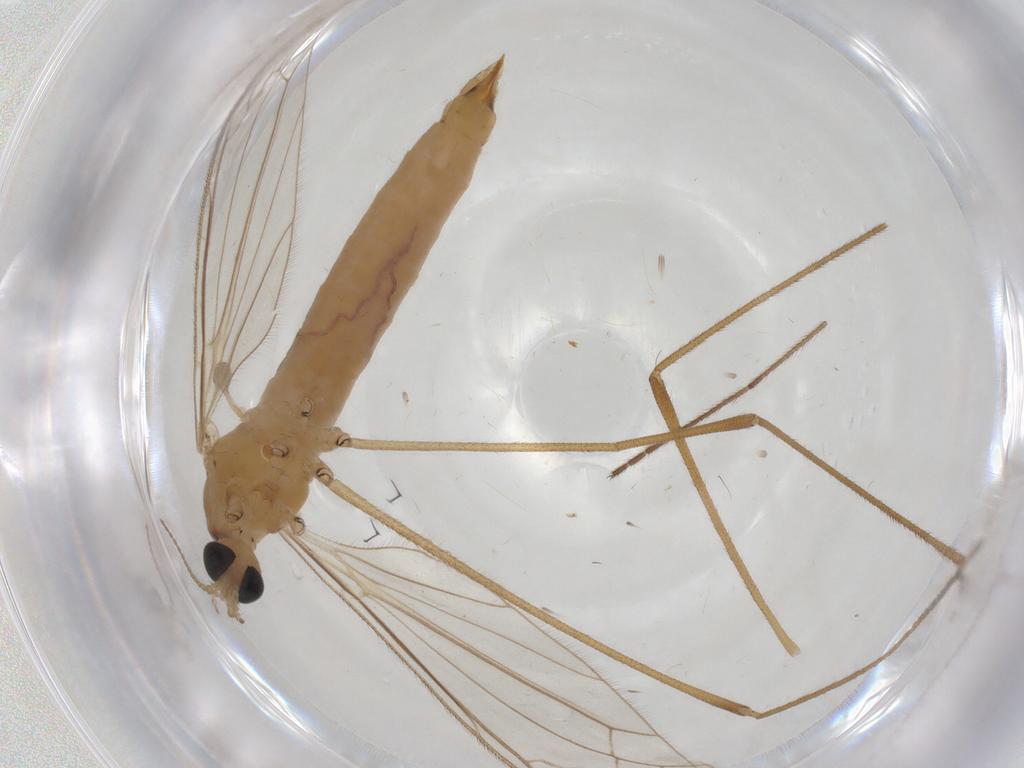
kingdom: Animalia
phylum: Arthropoda
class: Insecta
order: Diptera
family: Limoniidae
